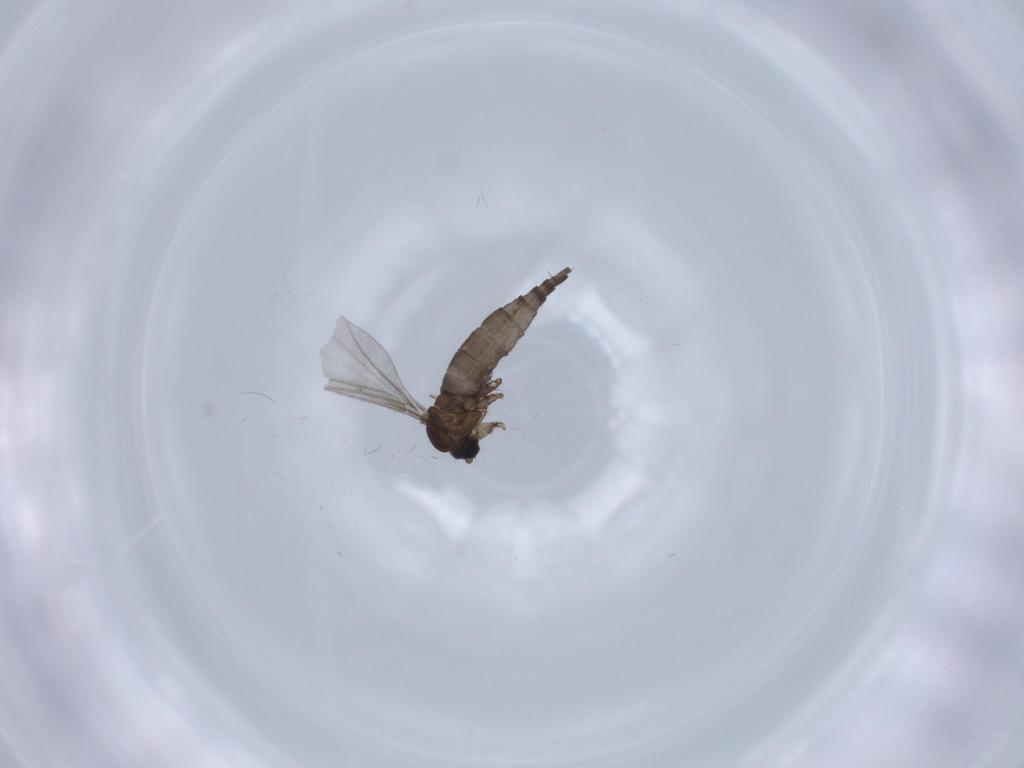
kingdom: Animalia
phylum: Arthropoda
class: Insecta
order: Diptera
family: Sciaridae
